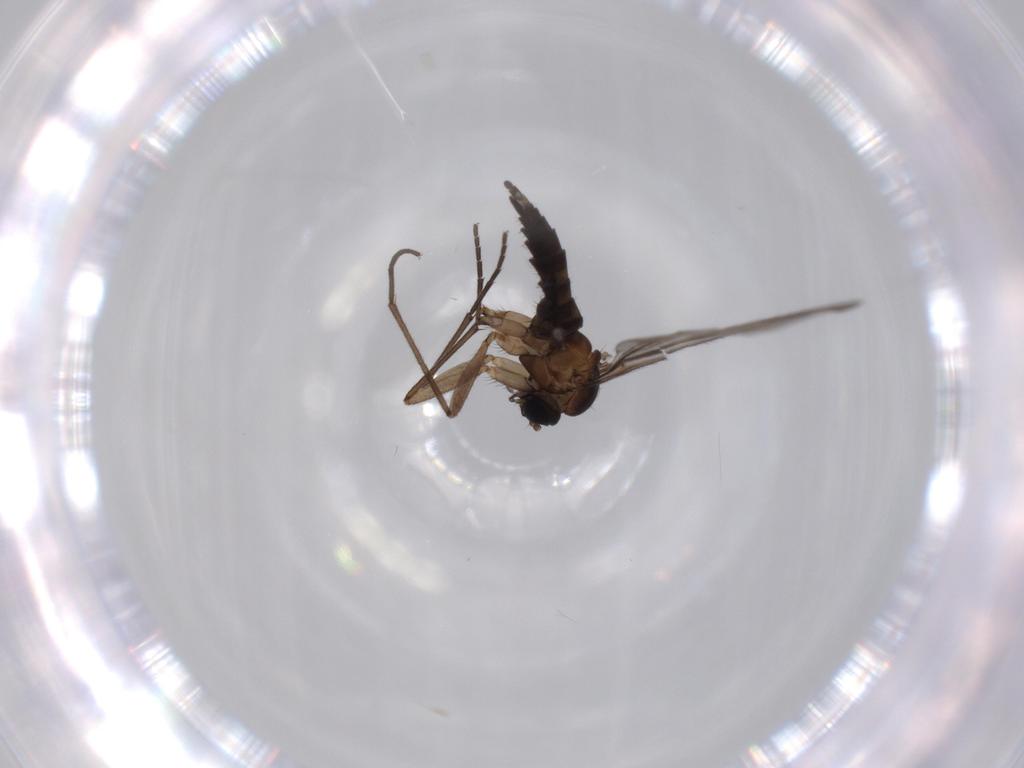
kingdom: Animalia
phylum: Arthropoda
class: Insecta
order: Diptera
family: Sciaridae
